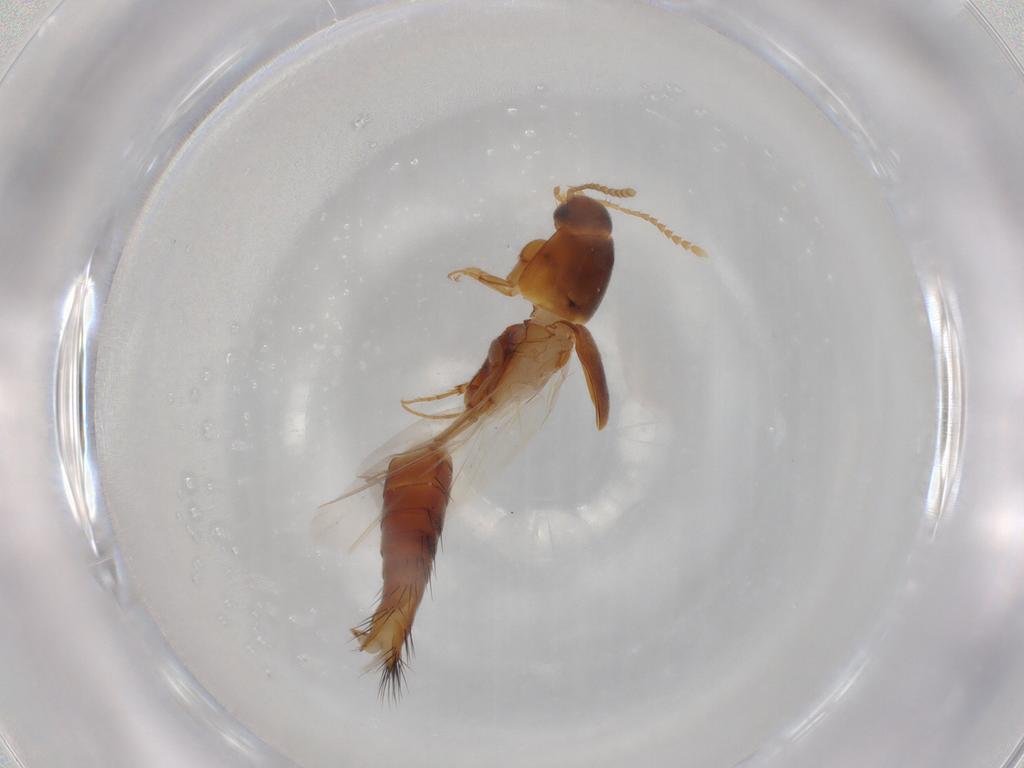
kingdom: Animalia
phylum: Arthropoda
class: Insecta
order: Coleoptera
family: Staphylinidae
